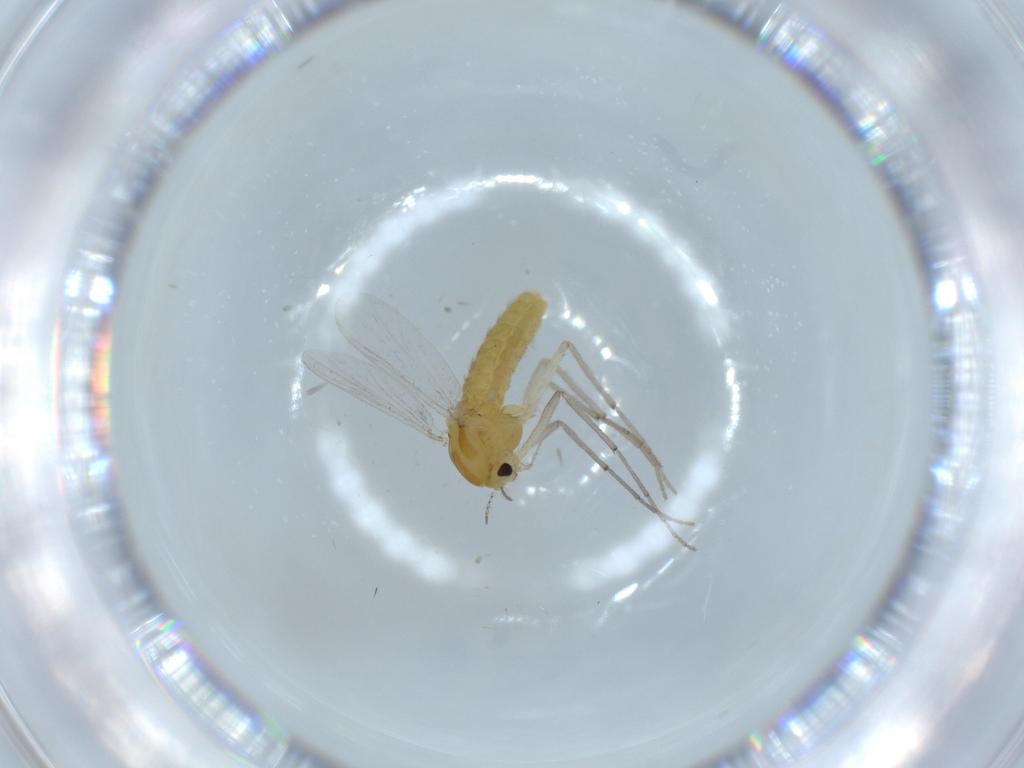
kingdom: Animalia
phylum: Arthropoda
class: Insecta
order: Diptera
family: Chironomidae
